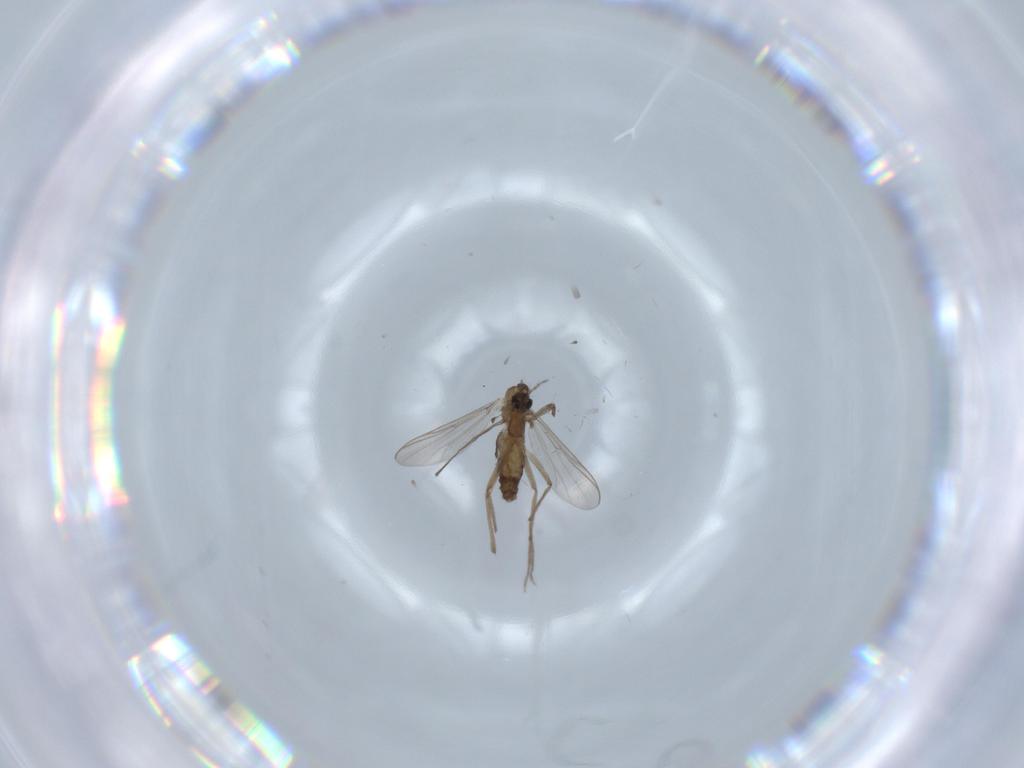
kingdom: Animalia
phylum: Arthropoda
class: Insecta
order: Diptera
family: Chironomidae
